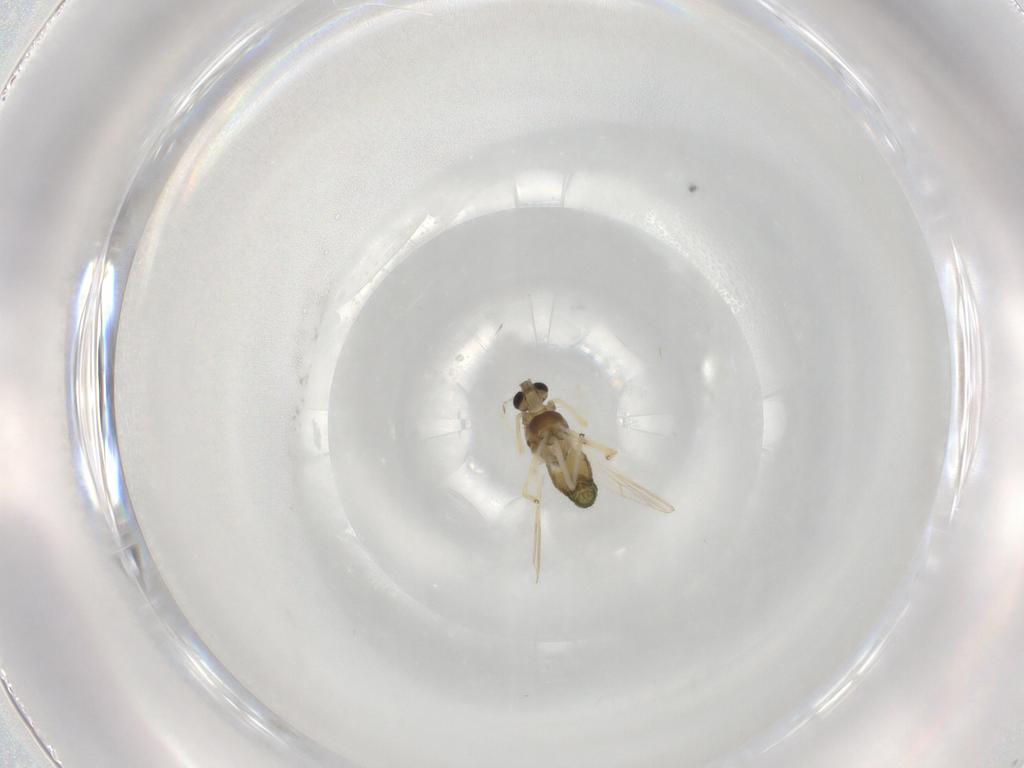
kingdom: Animalia
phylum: Arthropoda
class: Insecta
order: Diptera
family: Chironomidae
